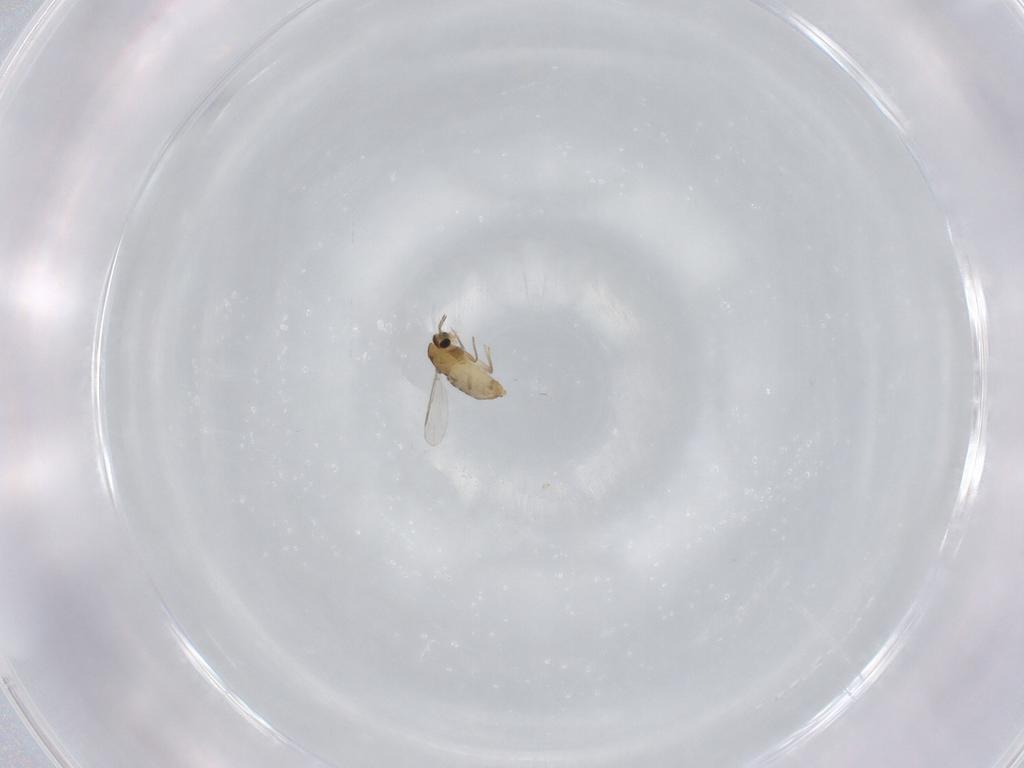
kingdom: Animalia
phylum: Arthropoda
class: Insecta
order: Diptera
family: Chironomidae
